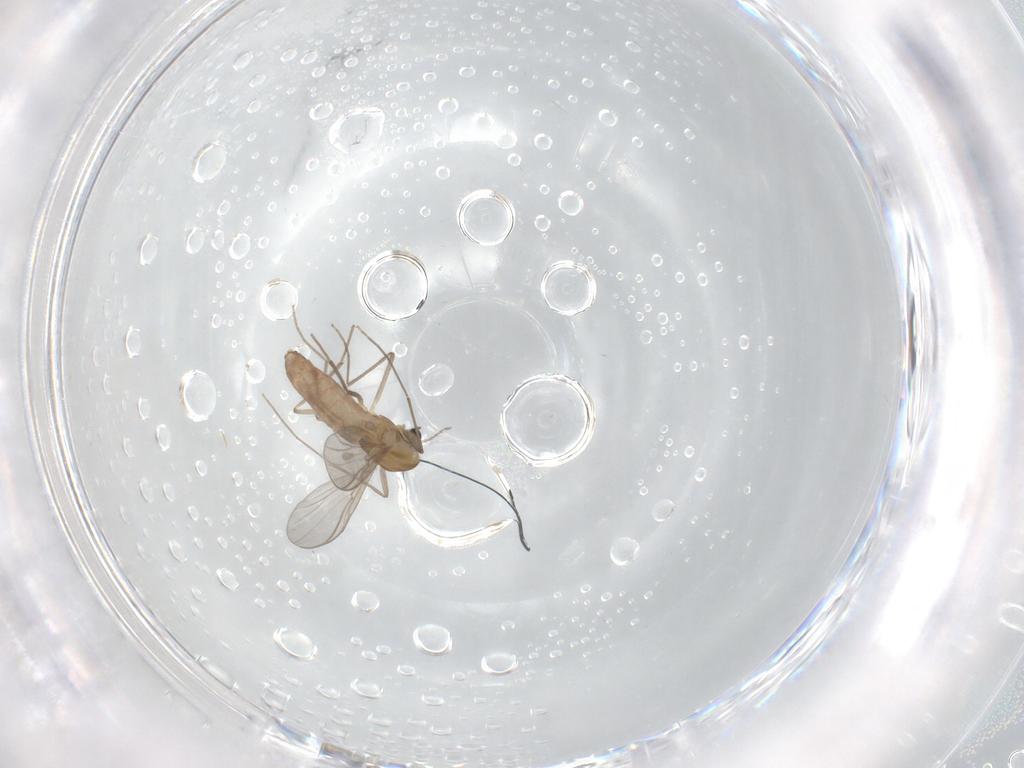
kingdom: Animalia
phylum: Arthropoda
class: Insecta
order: Diptera
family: Chironomidae
